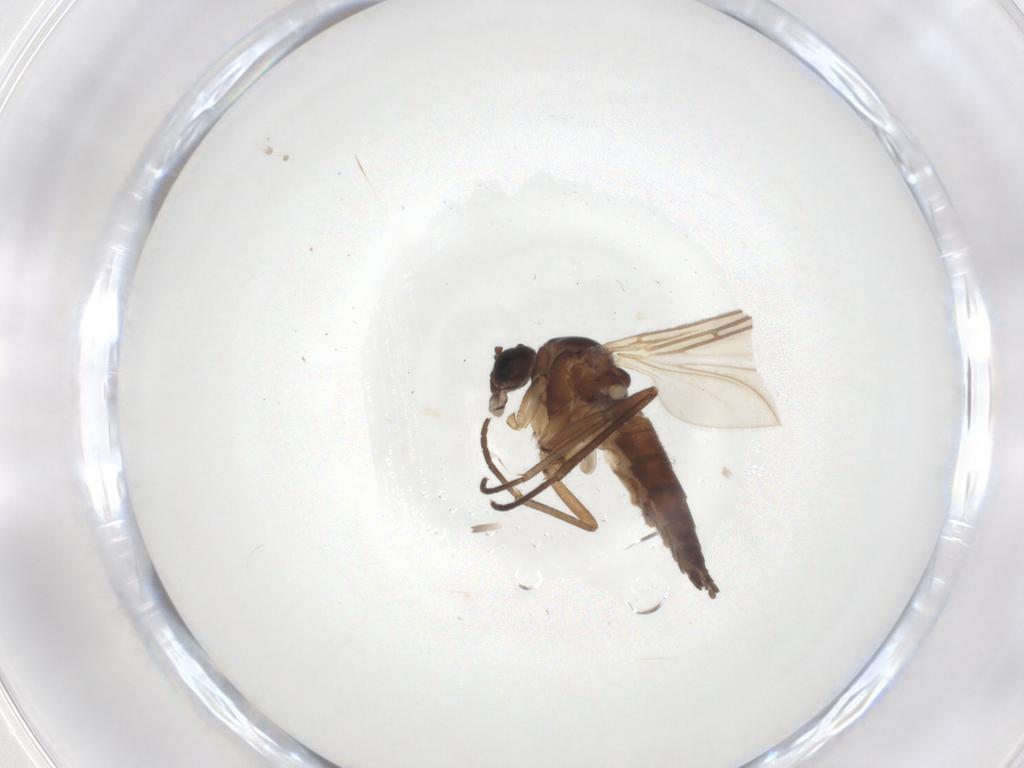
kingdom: Animalia
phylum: Arthropoda
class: Insecta
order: Diptera
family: Sciaridae
